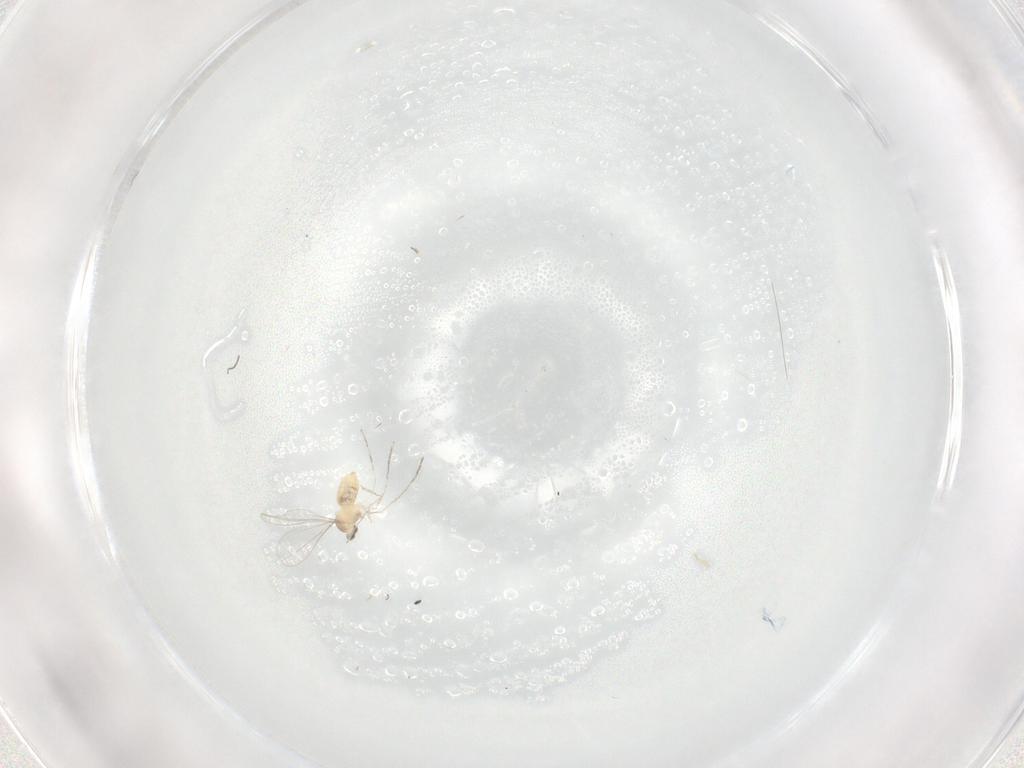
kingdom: Animalia
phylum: Arthropoda
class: Insecta
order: Diptera
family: Cecidomyiidae
